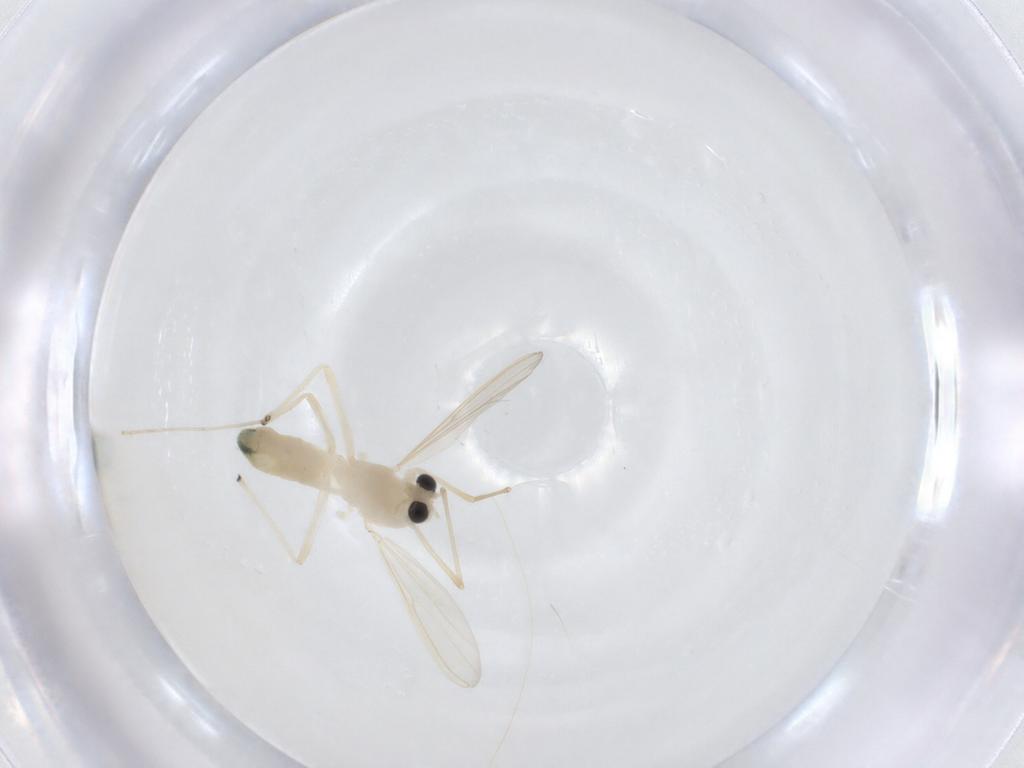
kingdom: Animalia
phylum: Arthropoda
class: Insecta
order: Diptera
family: Chironomidae
